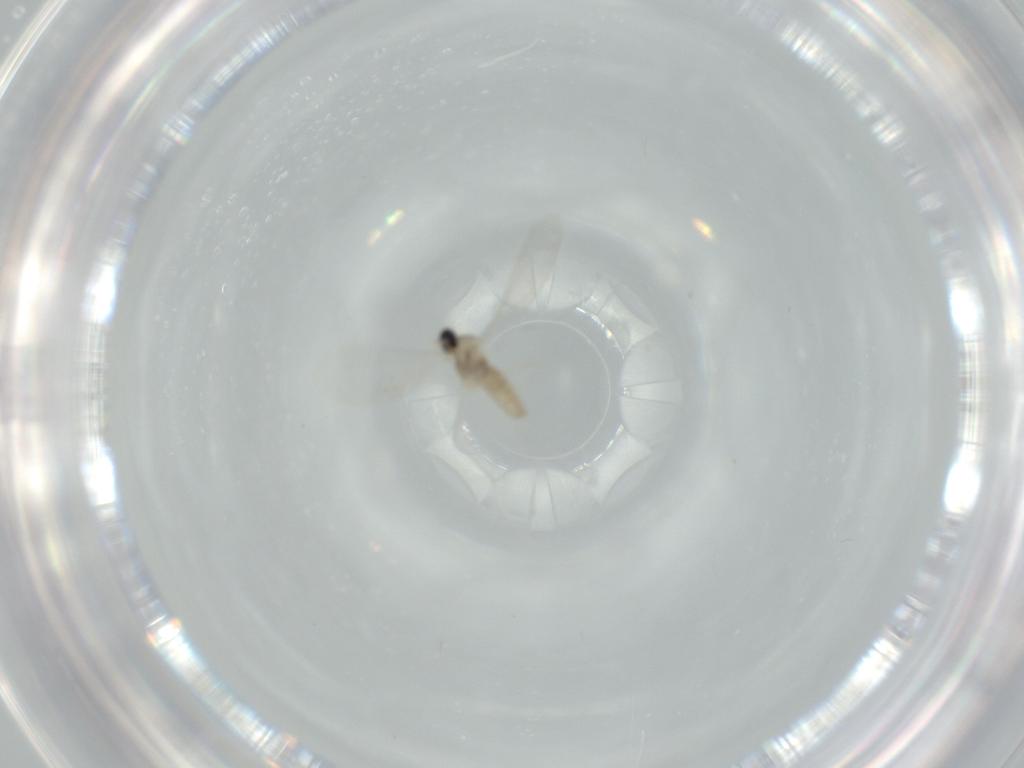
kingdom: Animalia
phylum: Arthropoda
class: Insecta
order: Diptera
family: Cecidomyiidae
